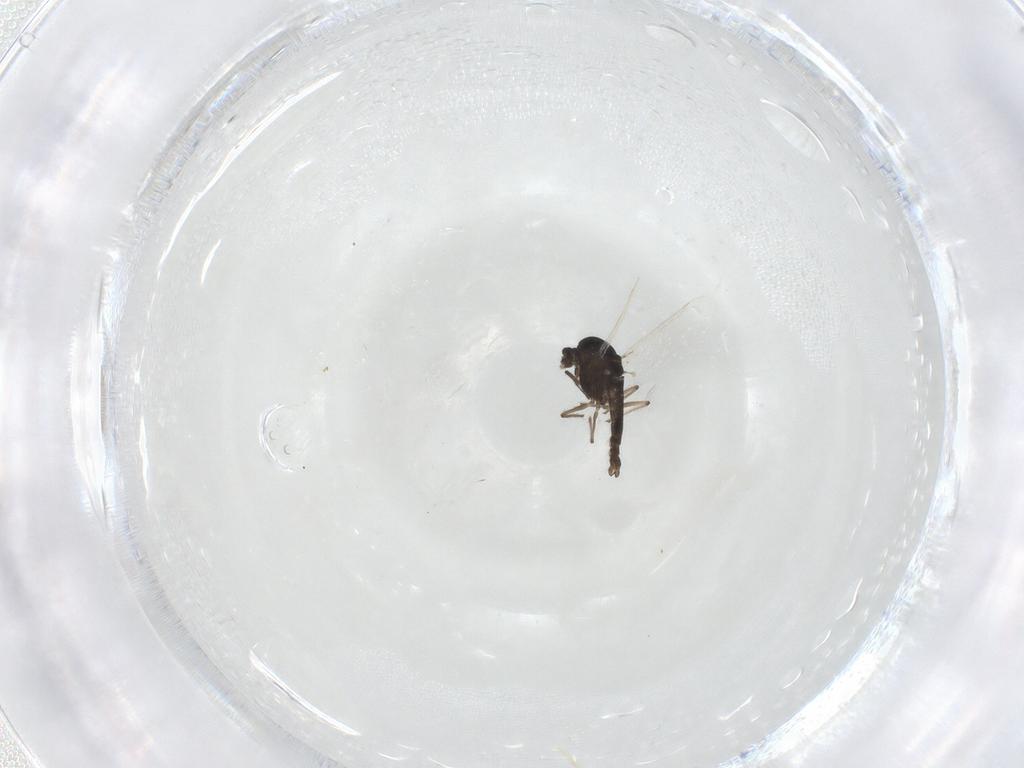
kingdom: Animalia
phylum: Arthropoda
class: Insecta
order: Diptera
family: Chironomidae
